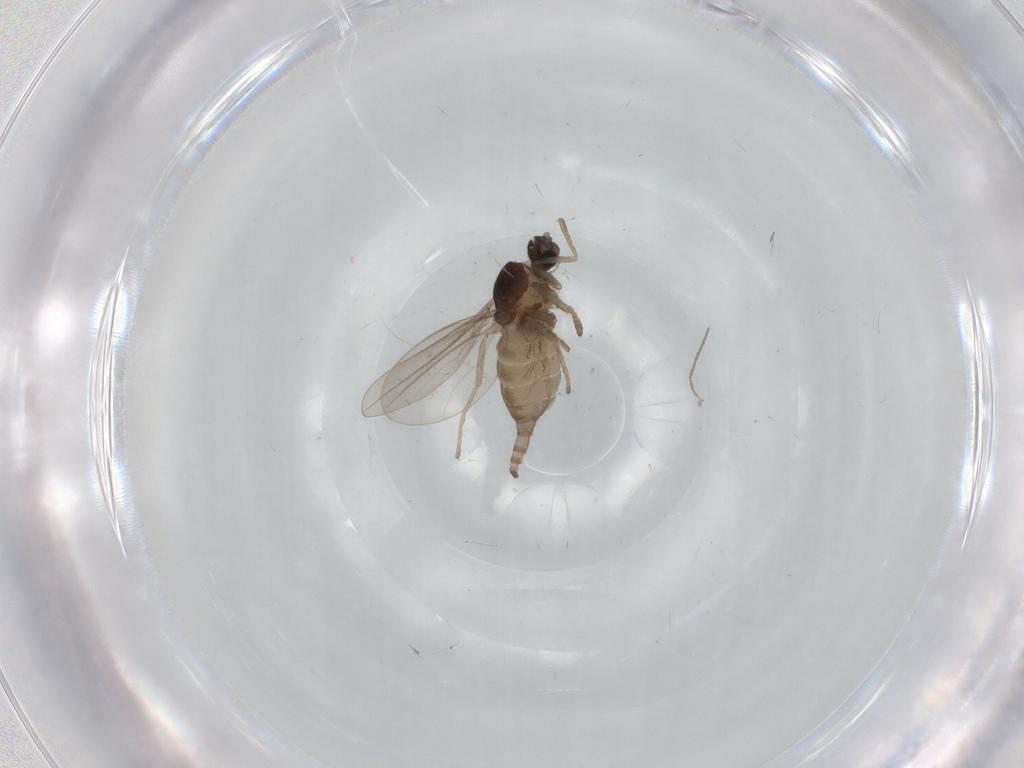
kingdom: Animalia
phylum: Arthropoda
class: Insecta
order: Diptera
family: Cecidomyiidae
